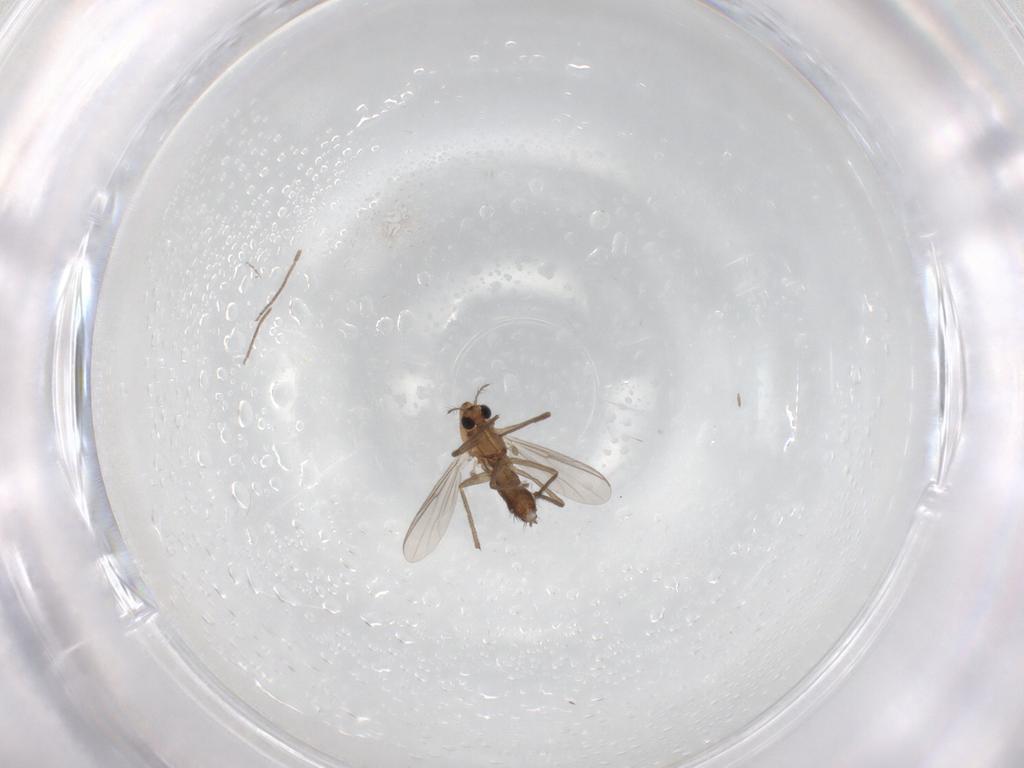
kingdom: Animalia
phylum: Arthropoda
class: Insecta
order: Diptera
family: Chironomidae
